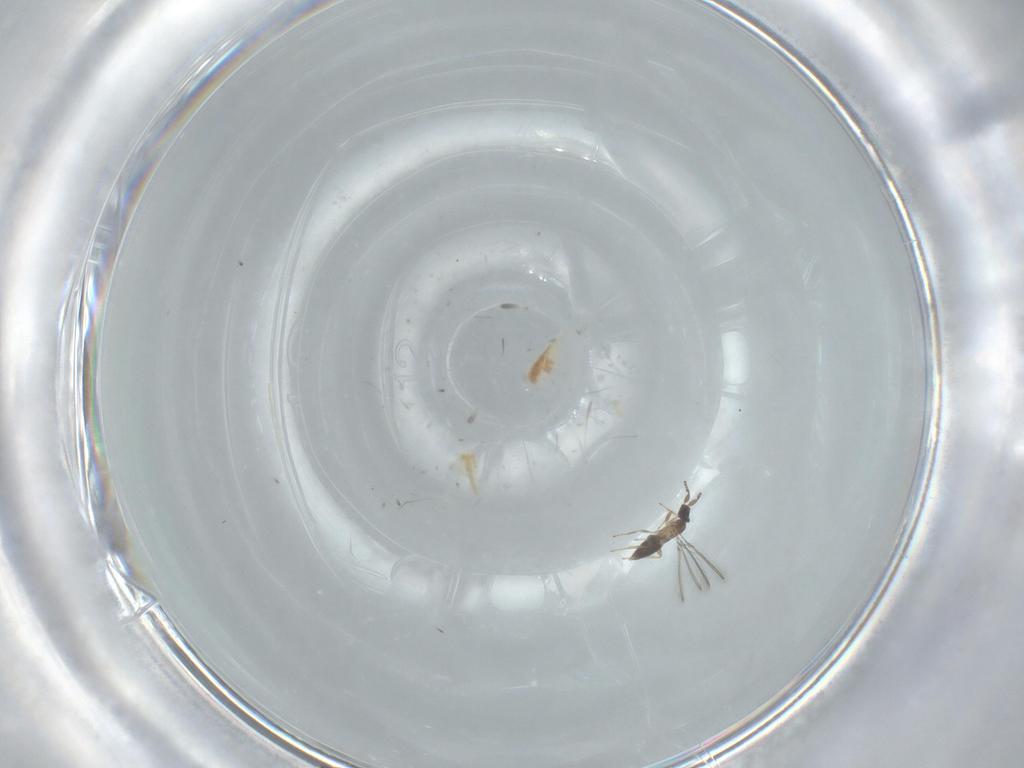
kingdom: Animalia
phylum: Arthropoda
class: Insecta
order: Hymenoptera
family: Mymaridae
